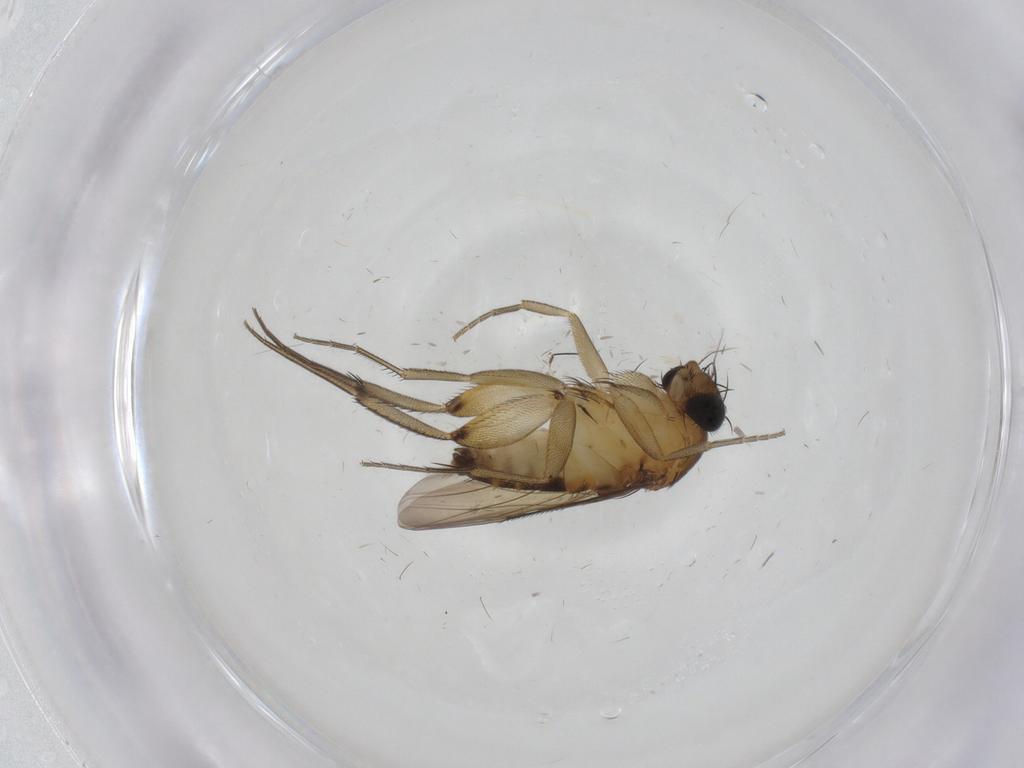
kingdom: Animalia
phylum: Arthropoda
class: Insecta
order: Diptera
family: Phoridae
